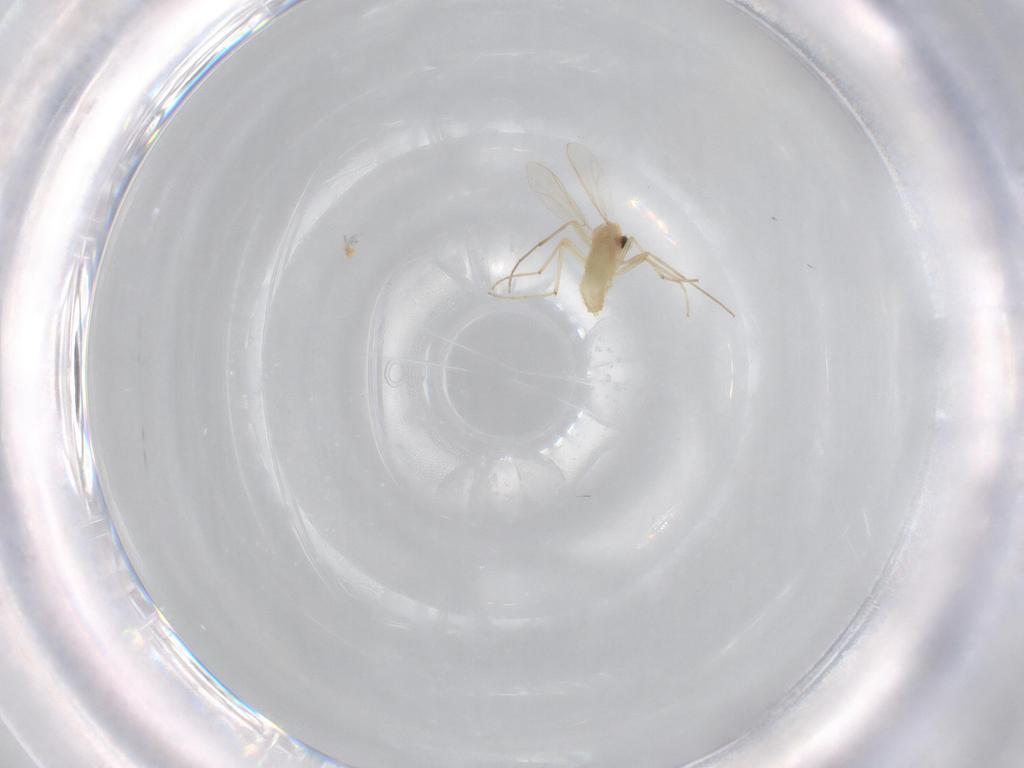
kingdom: Animalia
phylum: Arthropoda
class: Insecta
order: Diptera
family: Chironomidae
